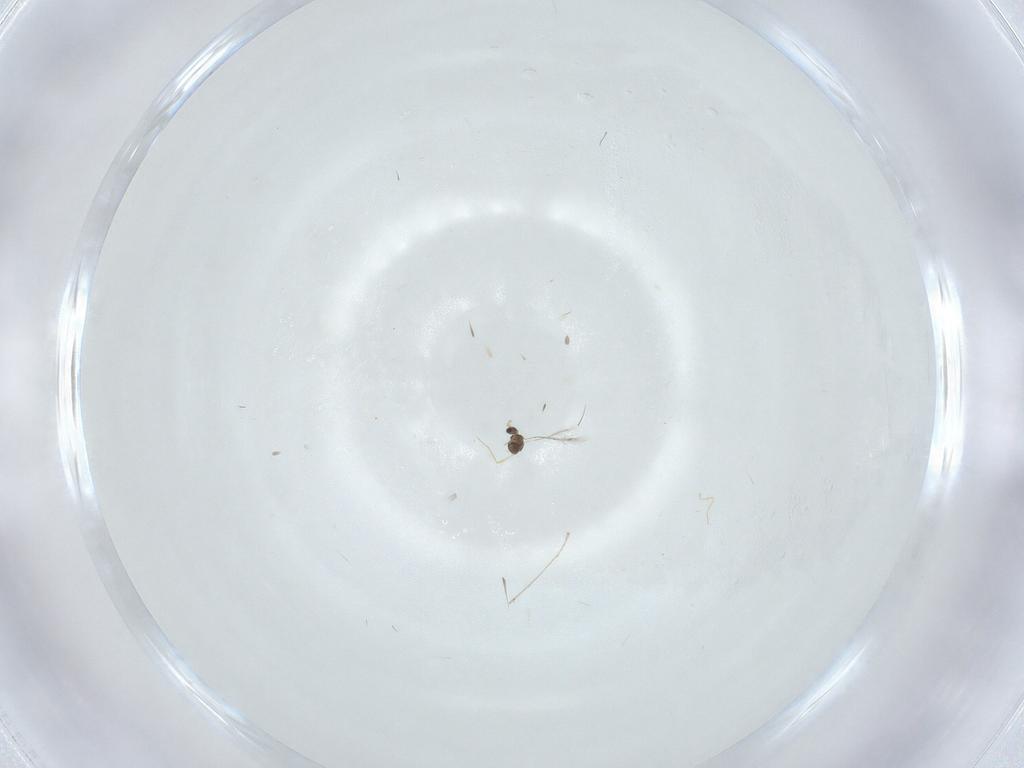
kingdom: Animalia
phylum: Arthropoda
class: Insecta
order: Hymenoptera
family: Mymaridae
